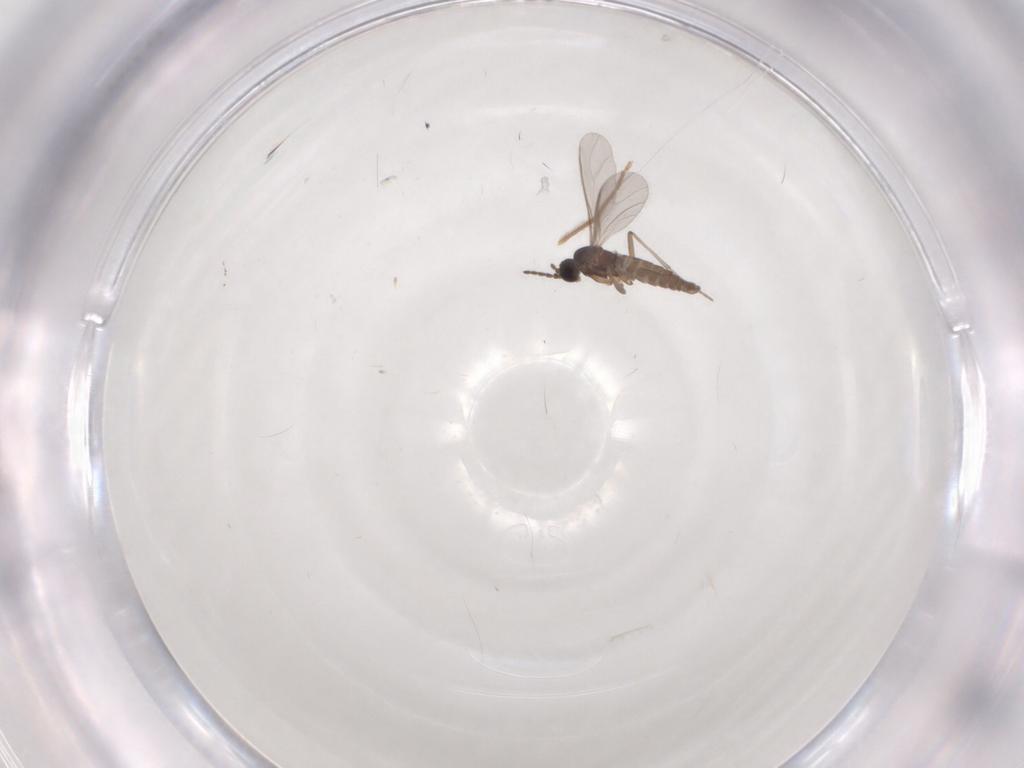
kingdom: Animalia
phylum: Arthropoda
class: Insecta
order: Diptera
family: Sciaridae
